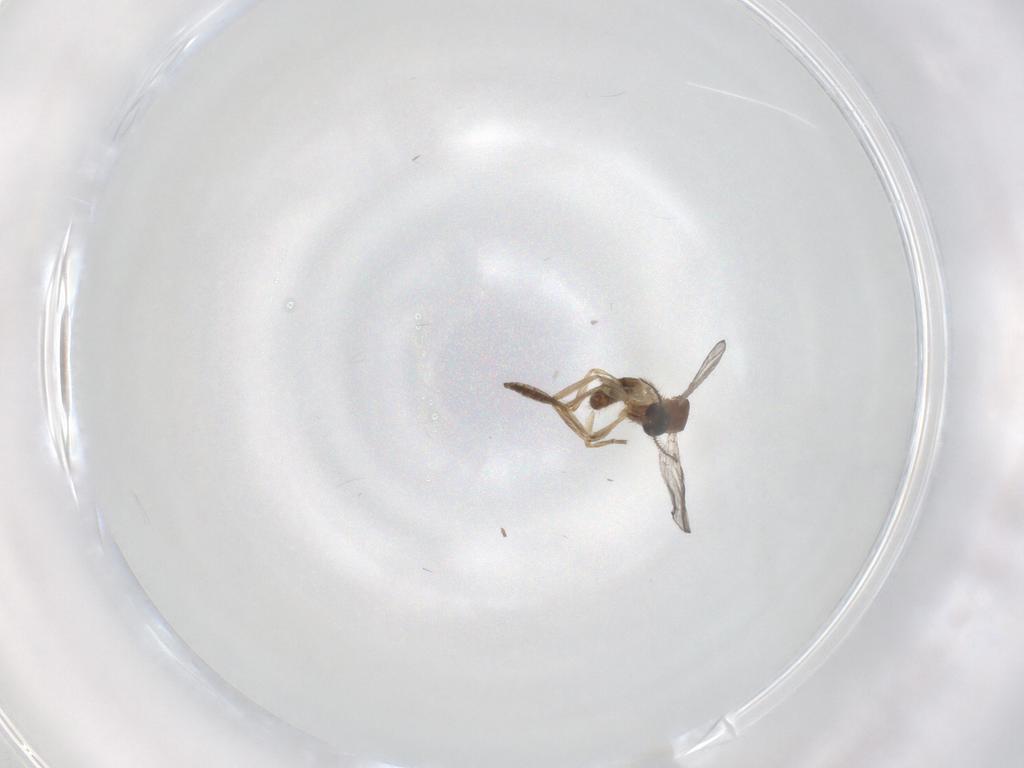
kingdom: Animalia
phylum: Arthropoda
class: Insecta
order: Diptera
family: Ceratopogonidae
